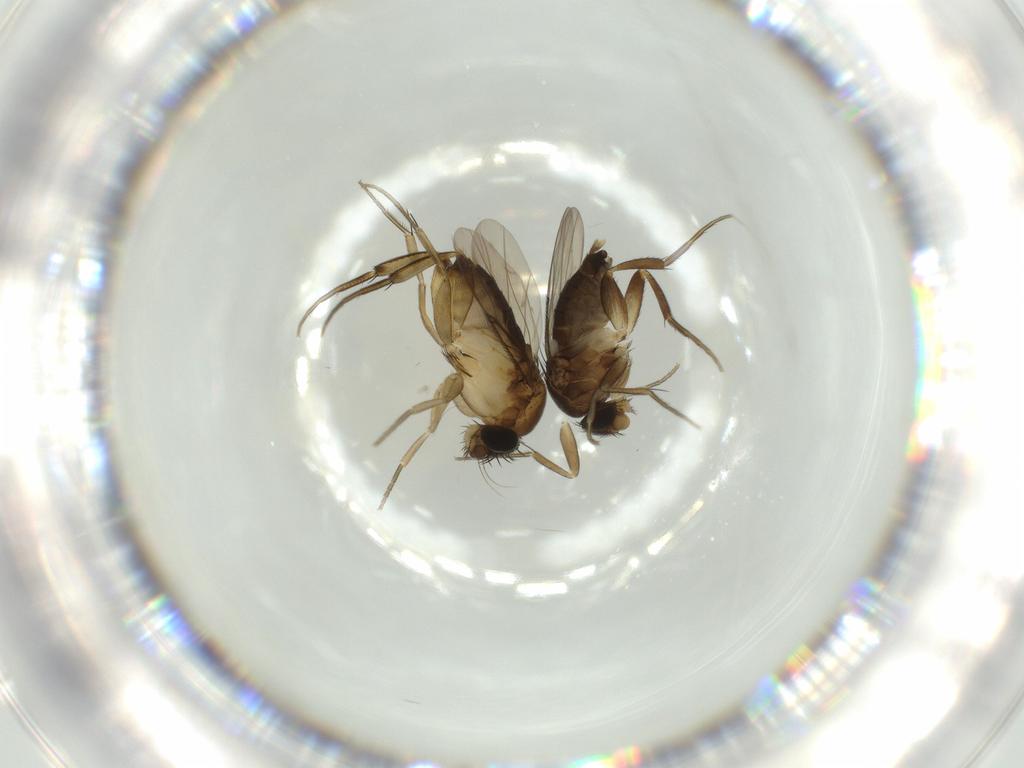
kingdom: Animalia
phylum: Arthropoda
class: Insecta
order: Diptera
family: Phoridae
